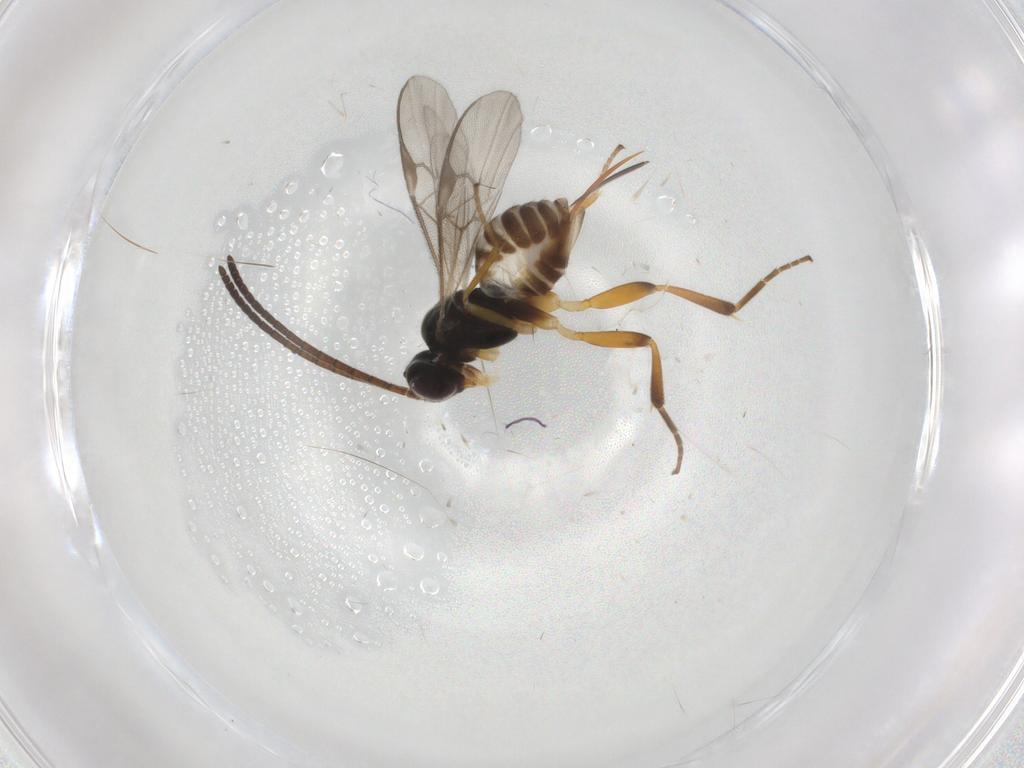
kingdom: Animalia
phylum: Arthropoda
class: Insecta
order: Hymenoptera
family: Braconidae
